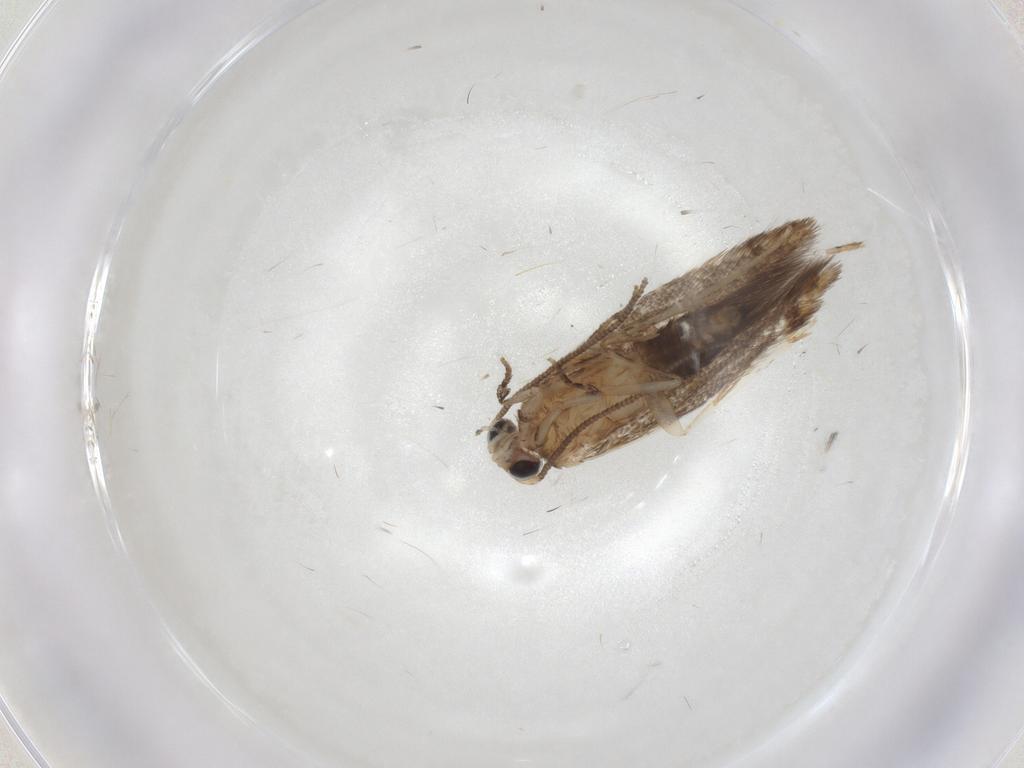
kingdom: Animalia
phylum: Arthropoda
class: Insecta
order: Lepidoptera
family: Tineidae
